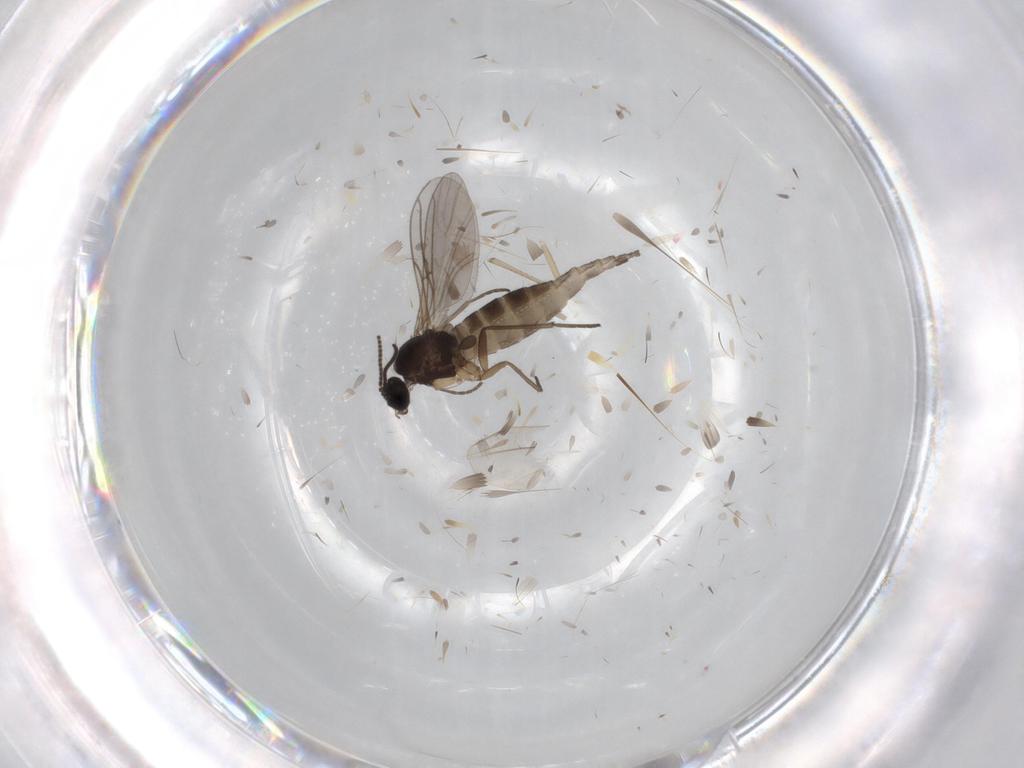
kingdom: Animalia
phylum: Arthropoda
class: Insecta
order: Diptera
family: Sciaridae
